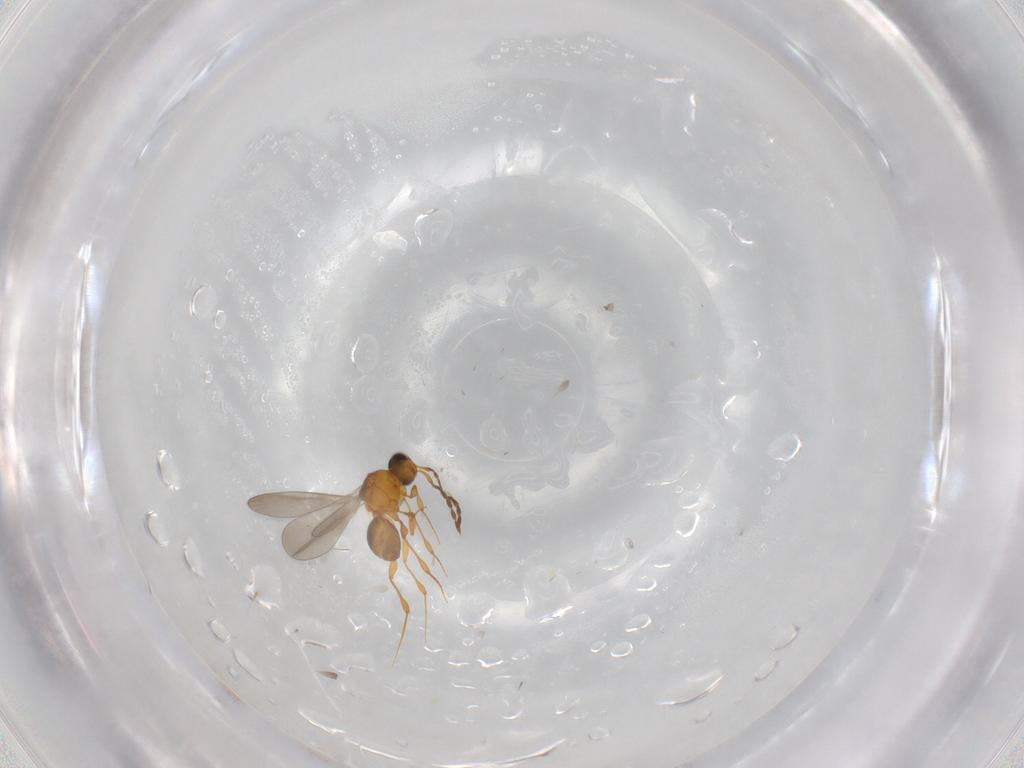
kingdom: Animalia
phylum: Arthropoda
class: Insecta
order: Hymenoptera
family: Platygastridae
